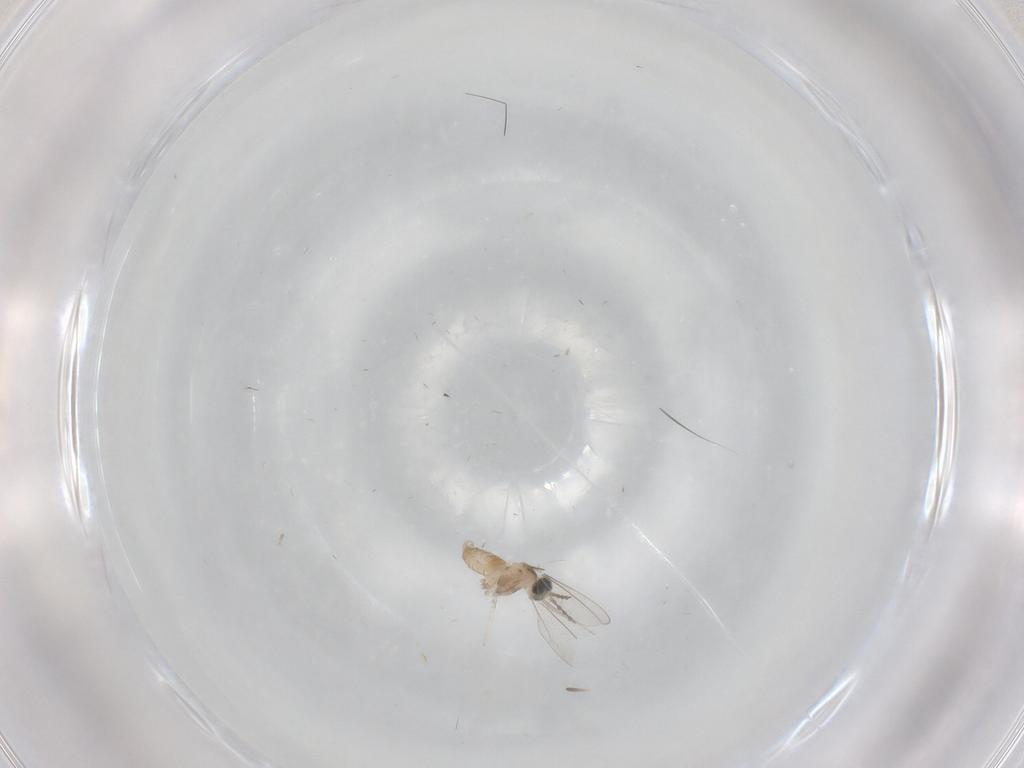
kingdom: Animalia
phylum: Arthropoda
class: Insecta
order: Diptera
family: Cecidomyiidae
